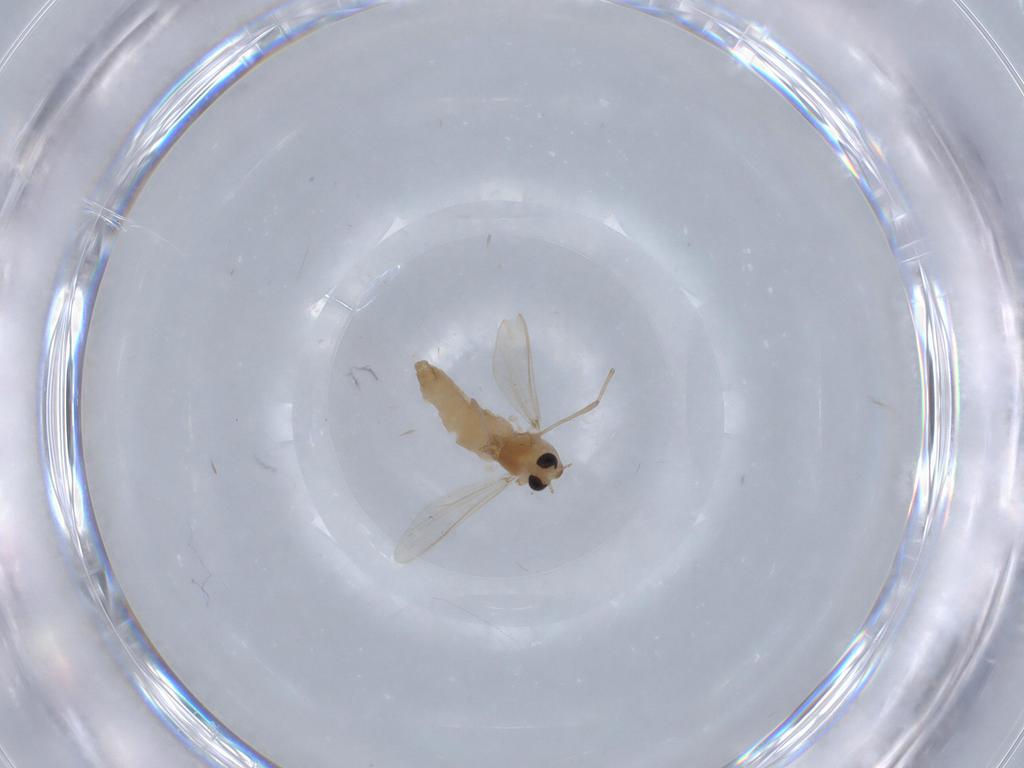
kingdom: Animalia
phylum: Arthropoda
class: Insecta
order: Diptera
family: Chironomidae
